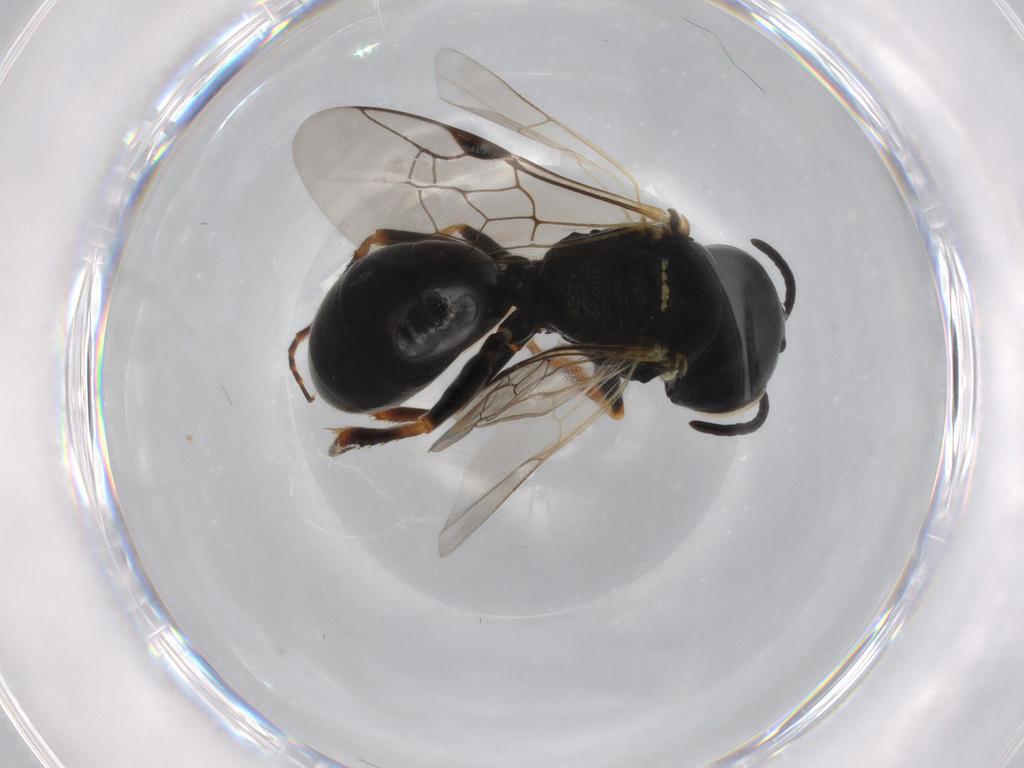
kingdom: Animalia
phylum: Arthropoda
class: Insecta
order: Hymenoptera
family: Crabronidae
